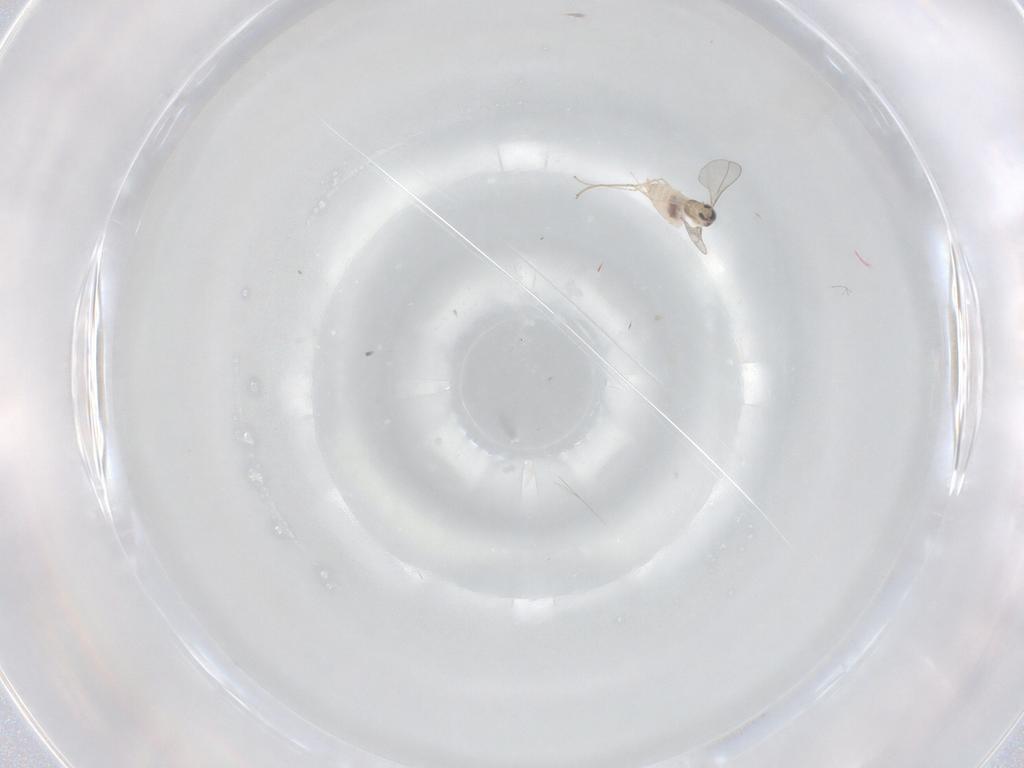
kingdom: Animalia
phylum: Arthropoda
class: Insecta
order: Diptera
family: Cecidomyiidae
